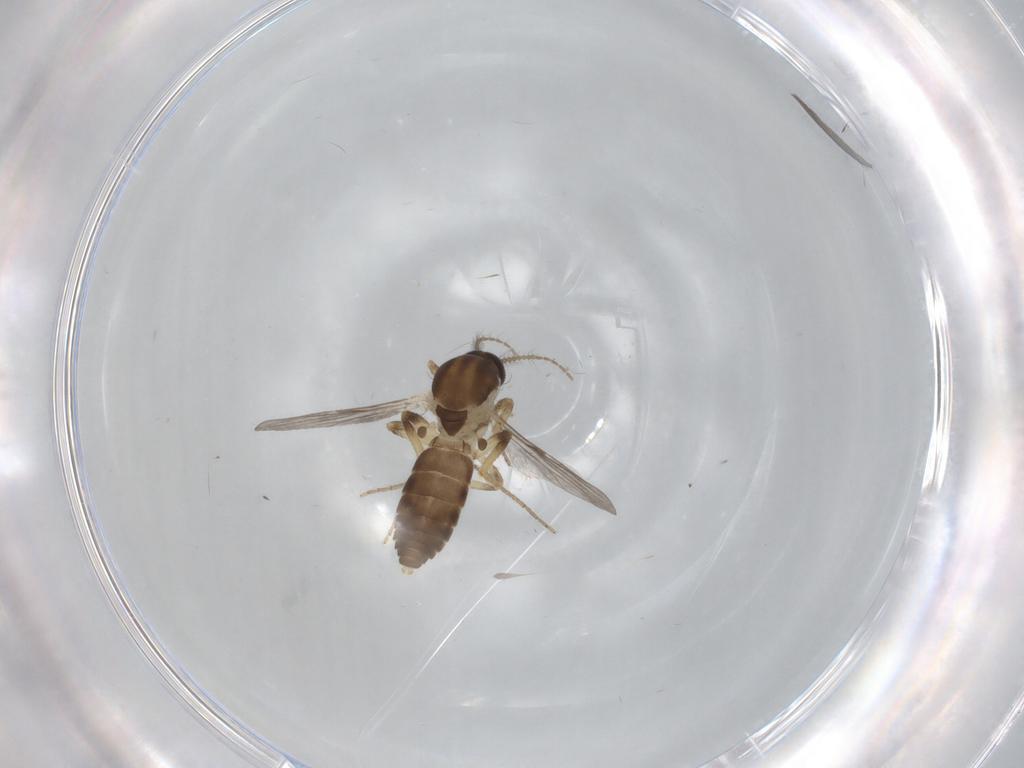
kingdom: Animalia
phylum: Arthropoda
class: Insecta
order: Diptera
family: Ceratopogonidae
